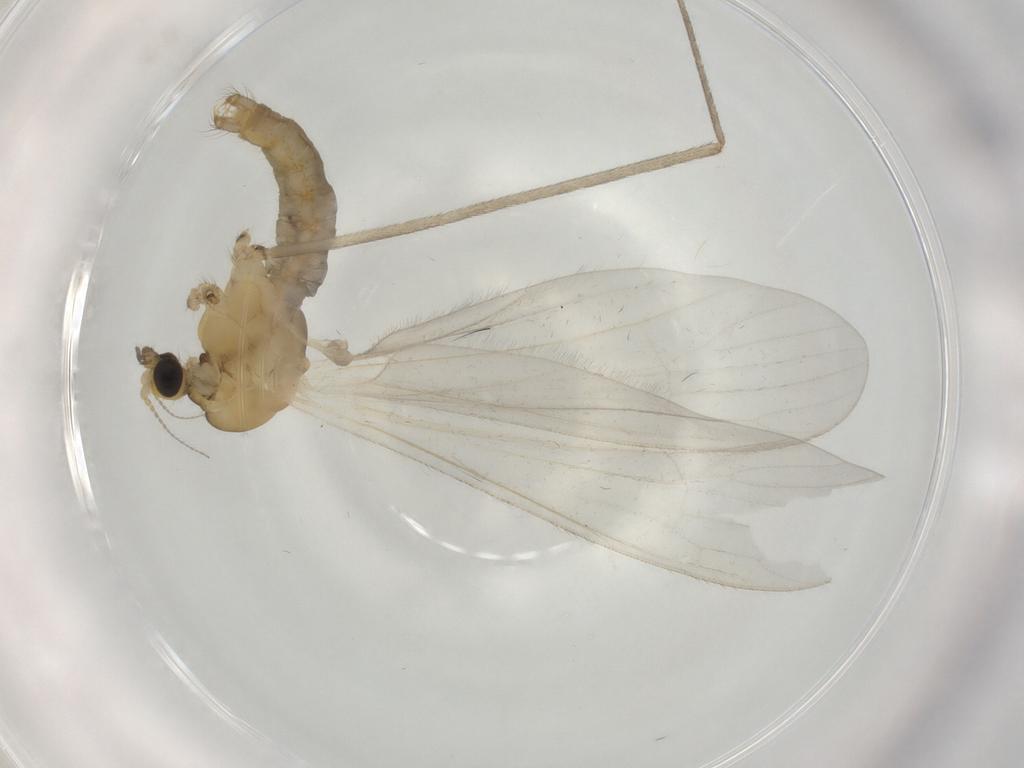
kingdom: Animalia
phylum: Arthropoda
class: Insecta
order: Diptera
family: Limoniidae
